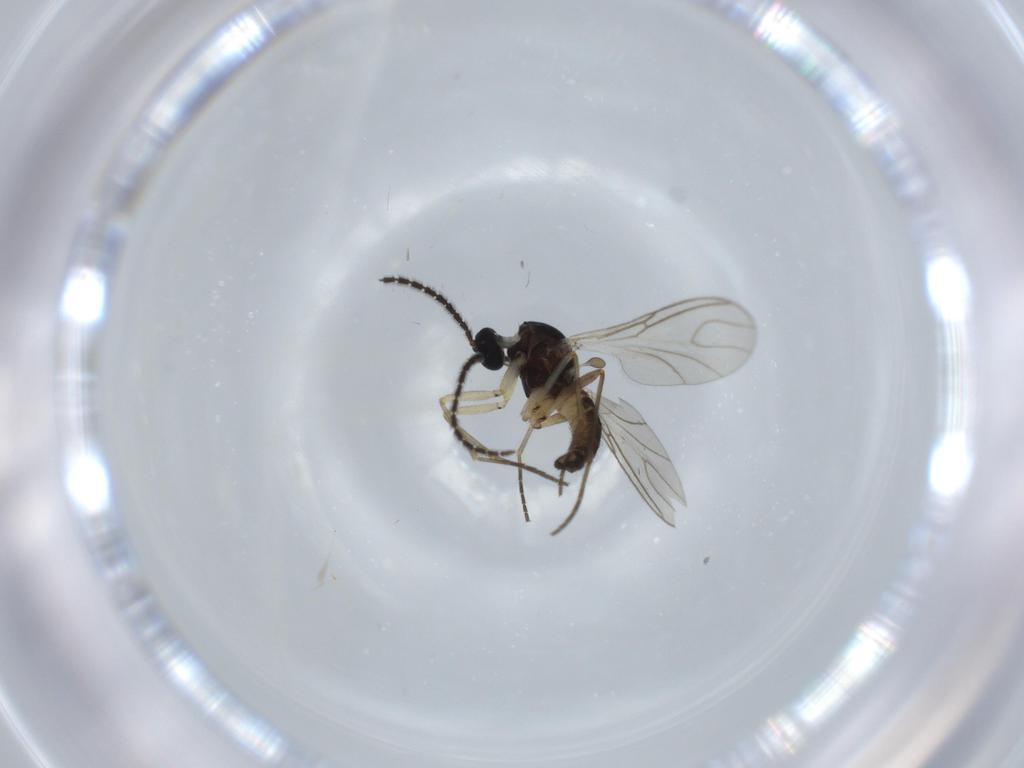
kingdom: Animalia
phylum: Arthropoda
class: Insecta
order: Diptera
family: Sciaridae
